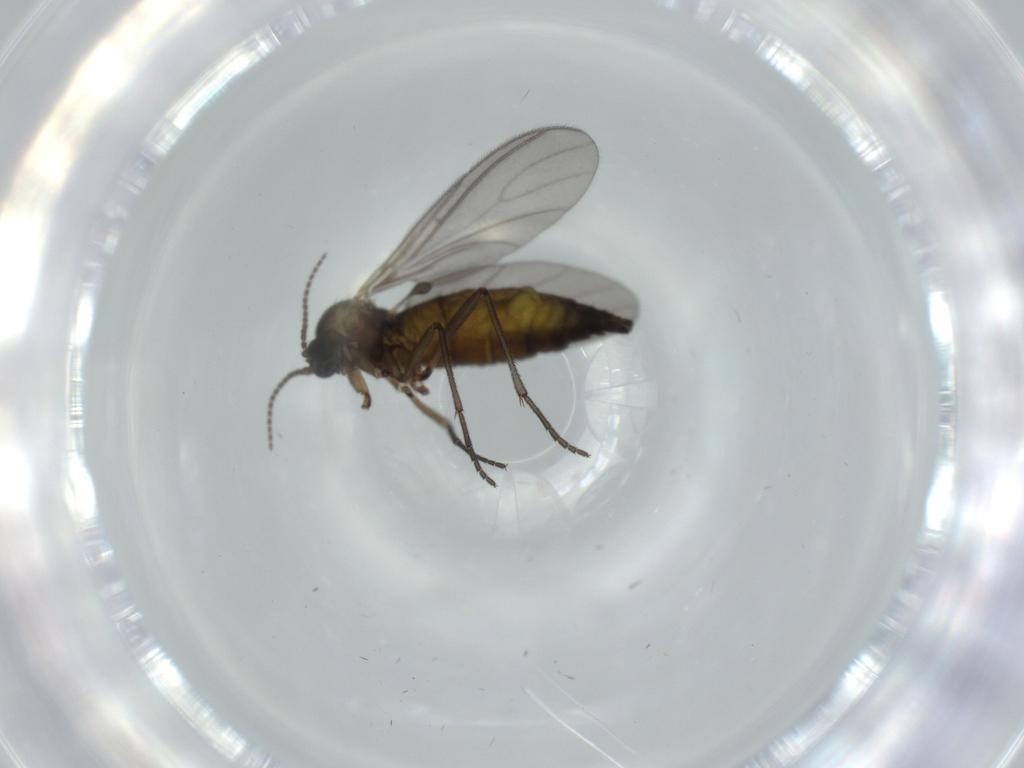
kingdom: Animalia
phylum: Arthropoda
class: Insecta
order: Diptera
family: Sciaridae
